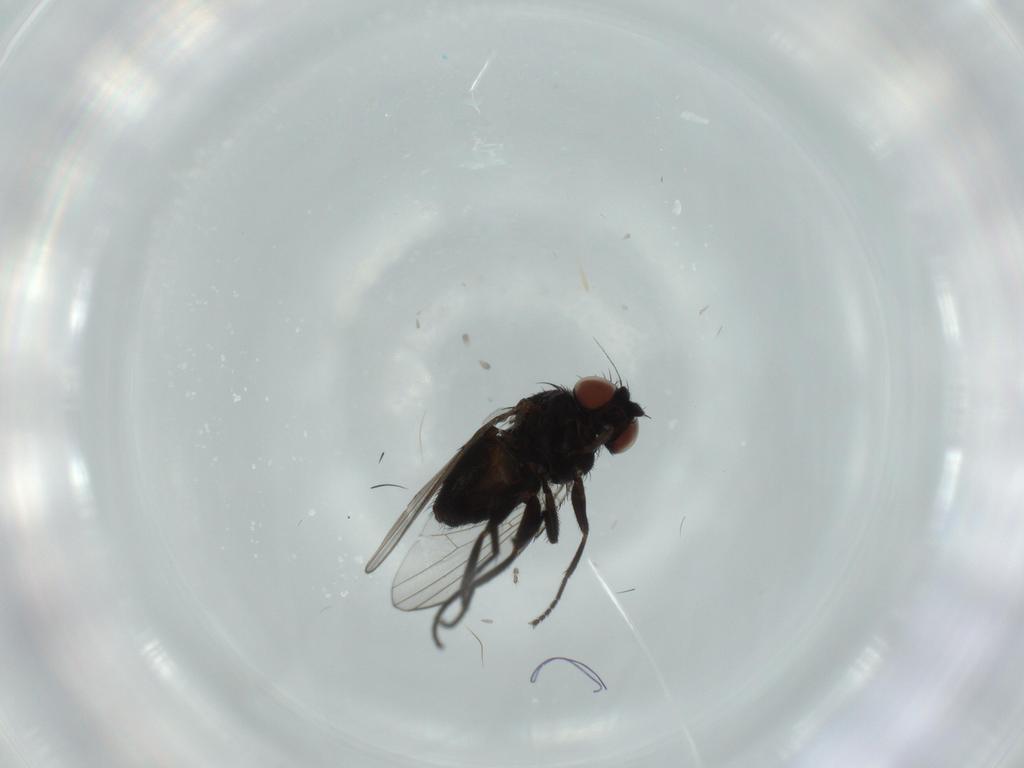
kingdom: Animalia
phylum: Arthropoda
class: Insecta
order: Diptera
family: Milichiidae
